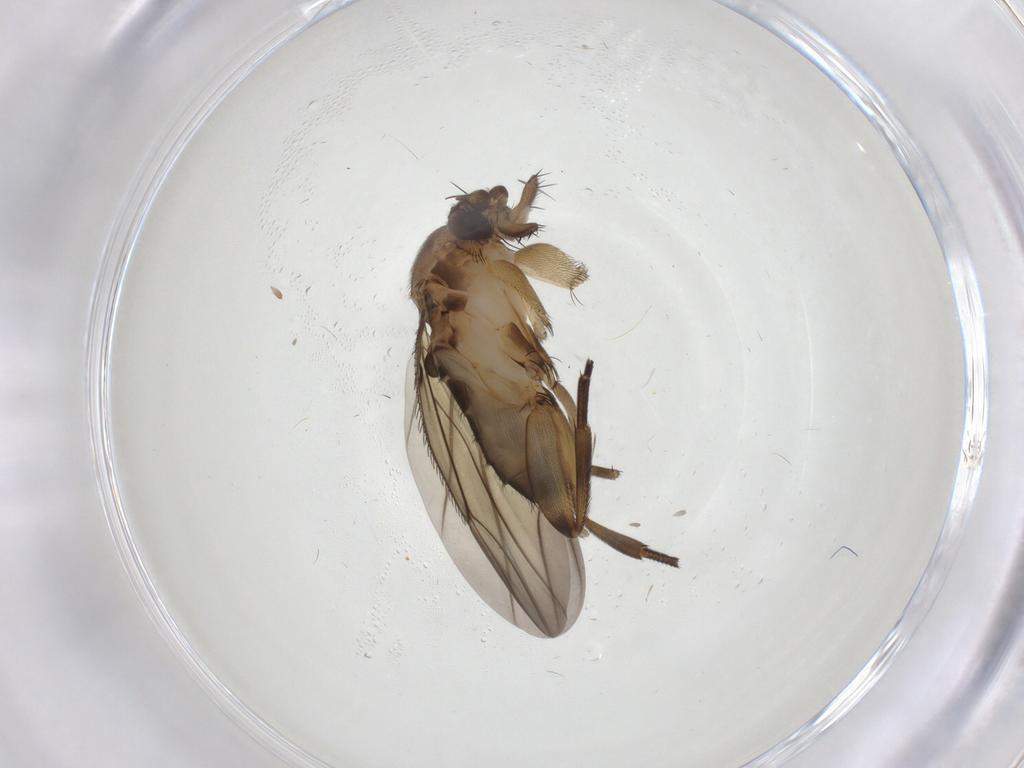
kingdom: Animalia
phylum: Arthropoda
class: Insecta
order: Diptera
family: Phoridae
